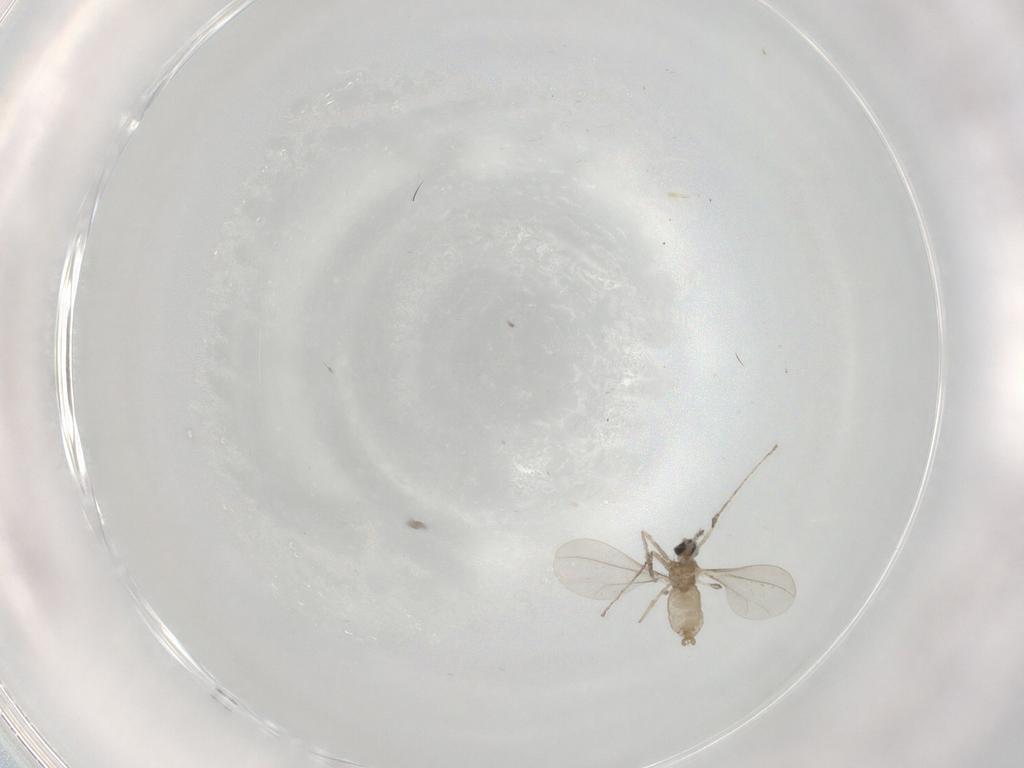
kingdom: Animalia
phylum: Arthropoda
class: Insecta
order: Diptera
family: Cecidomyiidae
